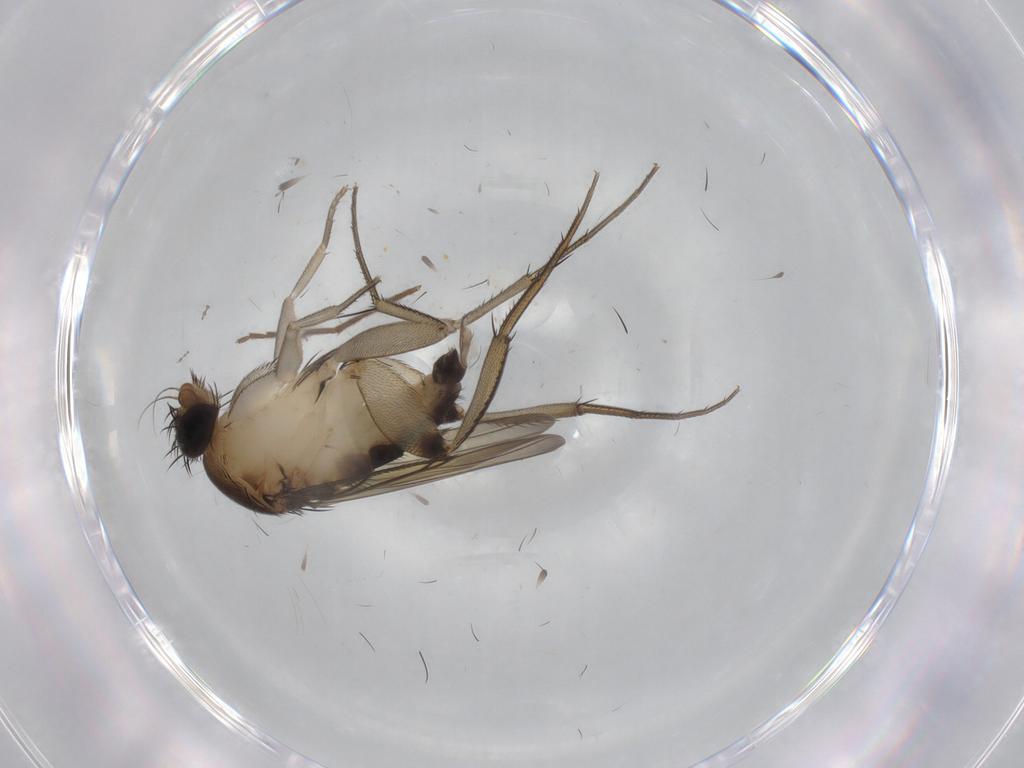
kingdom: Animalia
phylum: Arthropoda
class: Insecta
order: Diptera
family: Phoridae
